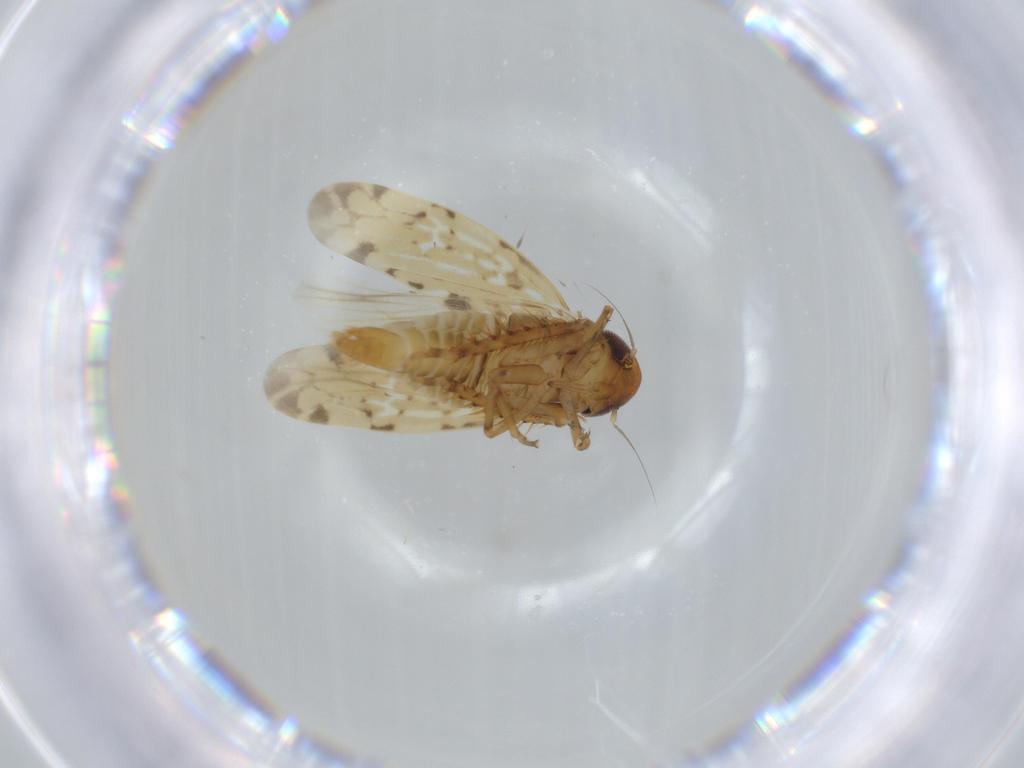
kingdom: Animalia
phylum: Arthropoda
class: Insecta
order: Hemiptera
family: Cicadellidae
